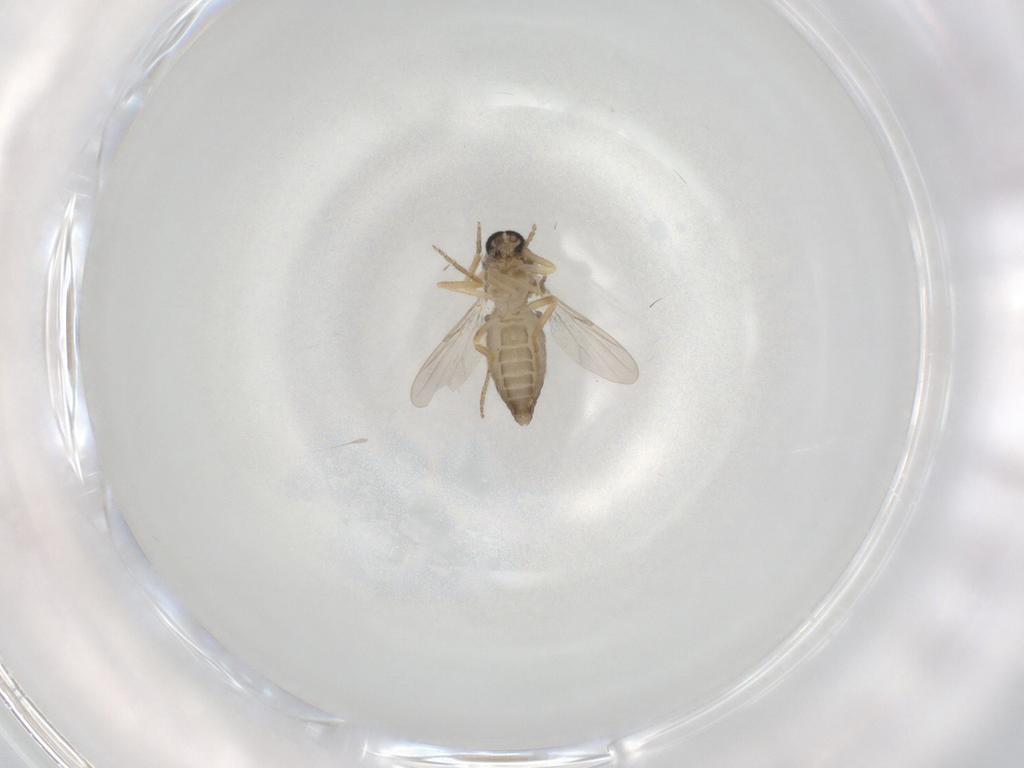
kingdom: Animalia
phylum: Arthropoda
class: Insecta
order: Diptera
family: Ceratopogonidae
